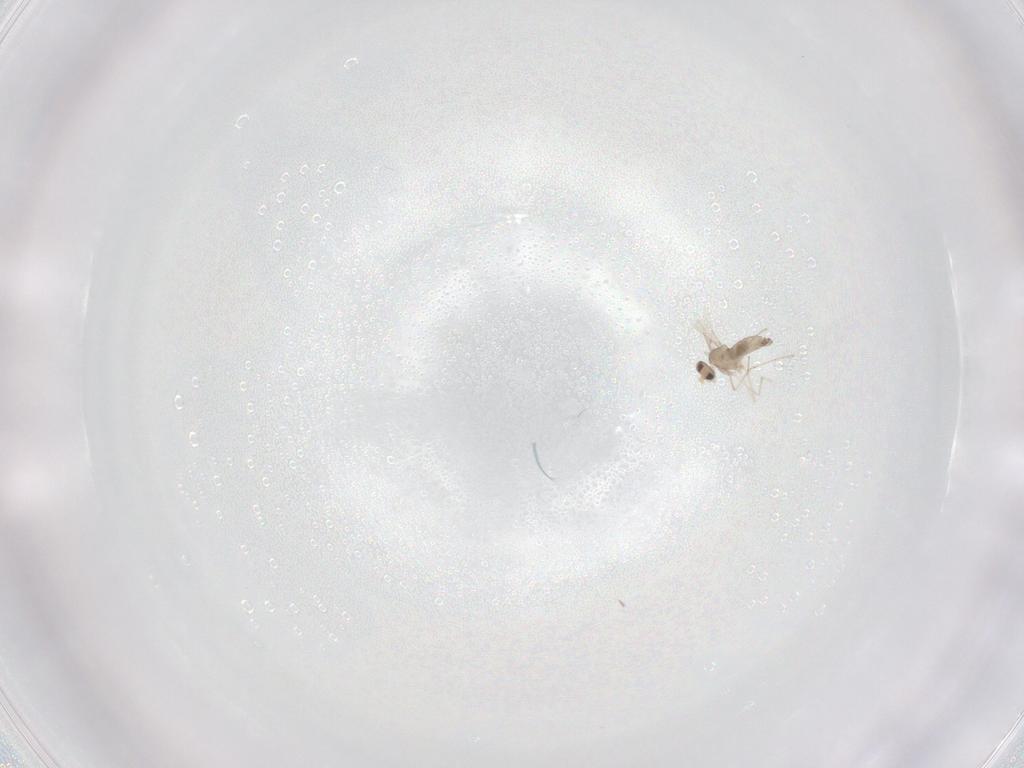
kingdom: Animalia
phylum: Arthropoda
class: Insecta
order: Diptera
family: Cecidomyiidae
